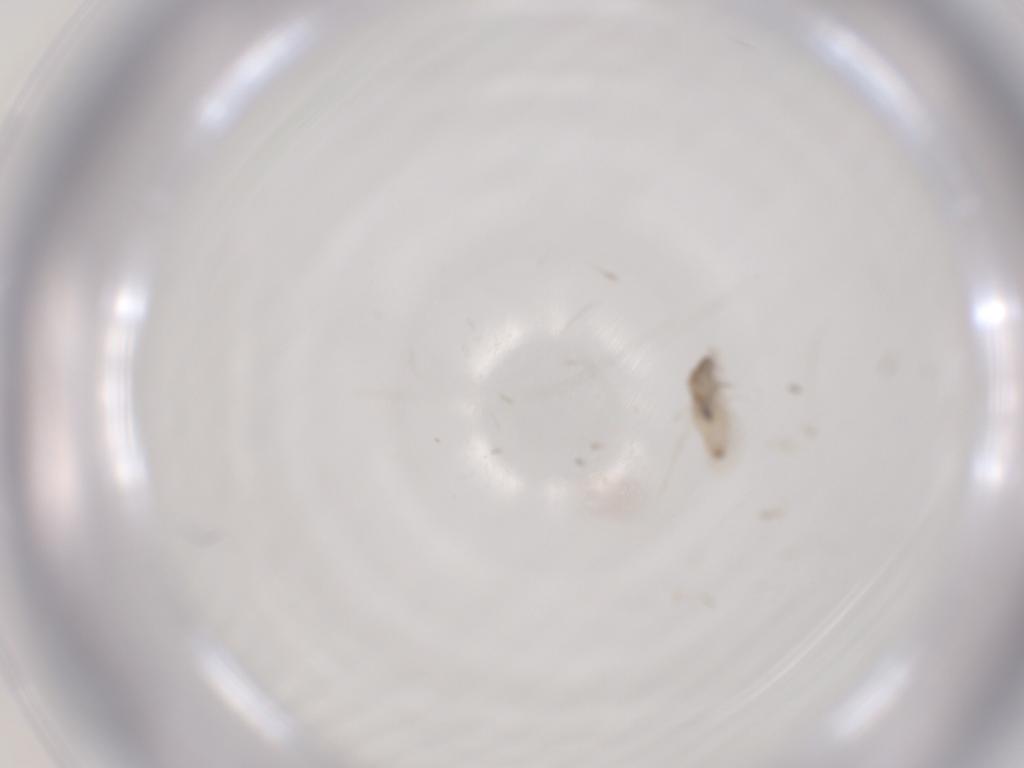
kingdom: Animalia
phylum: Arthropoda
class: Insecta
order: Diptera
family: Cecidomyiidae
